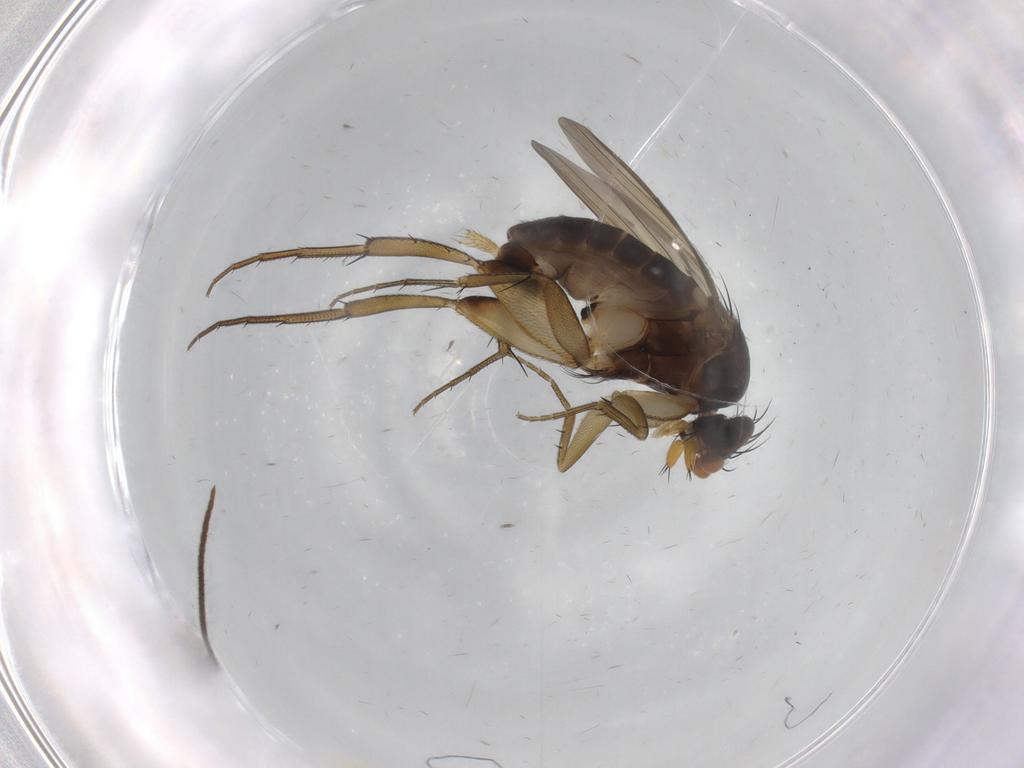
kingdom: Animalia
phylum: Arthropoda
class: Insecta
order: Diptera
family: Phoridae
